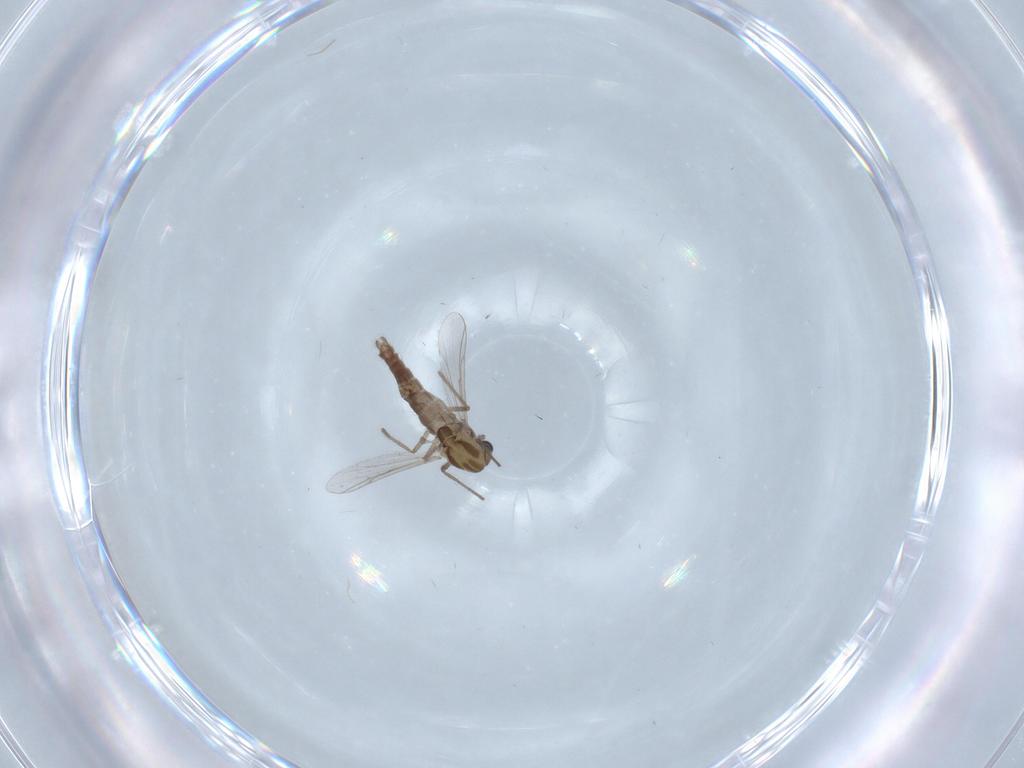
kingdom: Animalia
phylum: Arthropoda
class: Insecta
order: Diptera
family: Chironomidae
